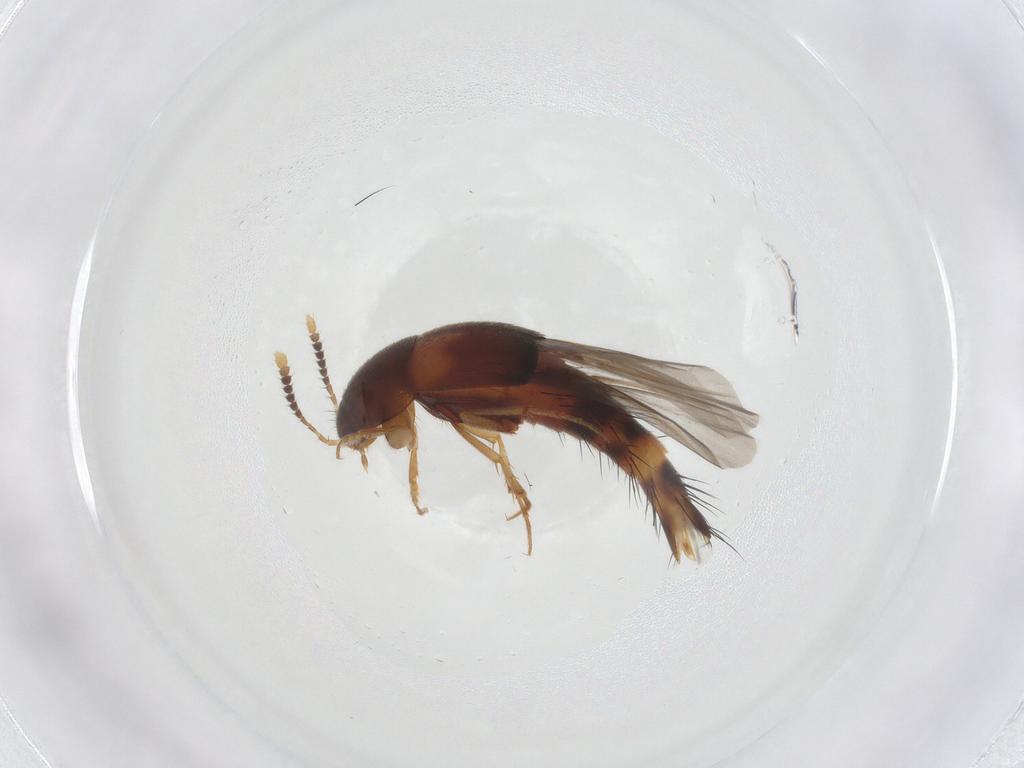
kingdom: Animalia
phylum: Arthropoda
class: Insecta
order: Coleoptera
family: Staphylinidae
